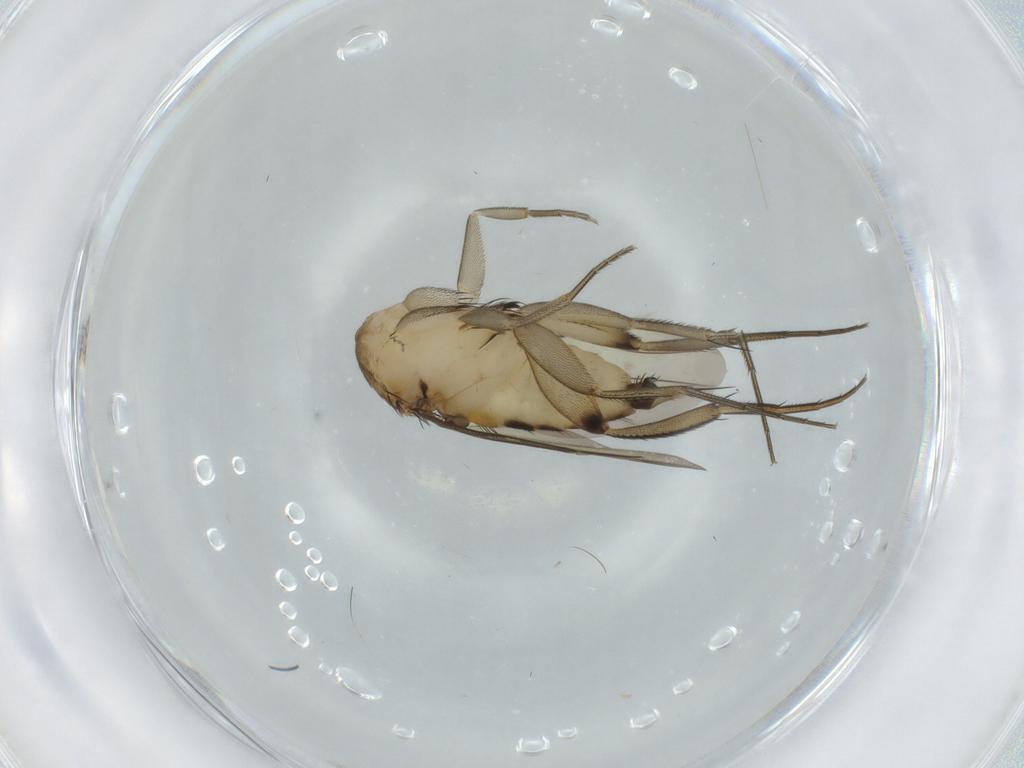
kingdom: Animalia
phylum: Arthropoda
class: Insecta
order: Diptera
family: Phoridae
